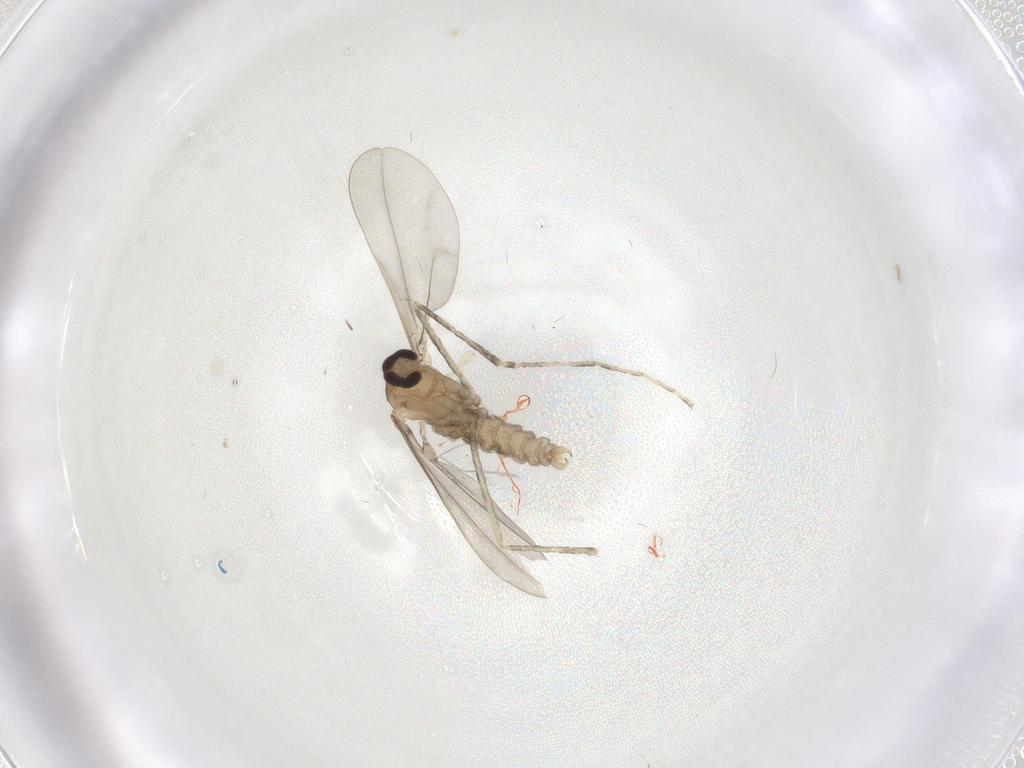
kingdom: Animalia
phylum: Arthropoda
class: Insecta
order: Diptera
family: Cecidomyiidae
